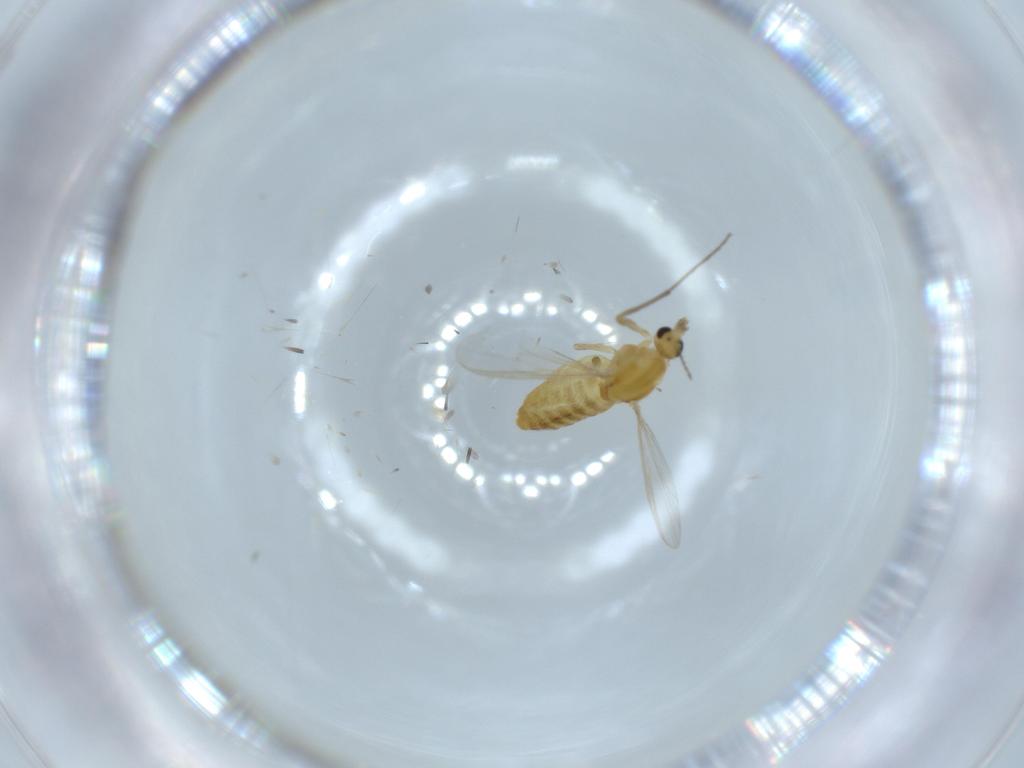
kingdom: Animalia
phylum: Arthropoda
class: Insecta
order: Diptera
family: Chironomidae
